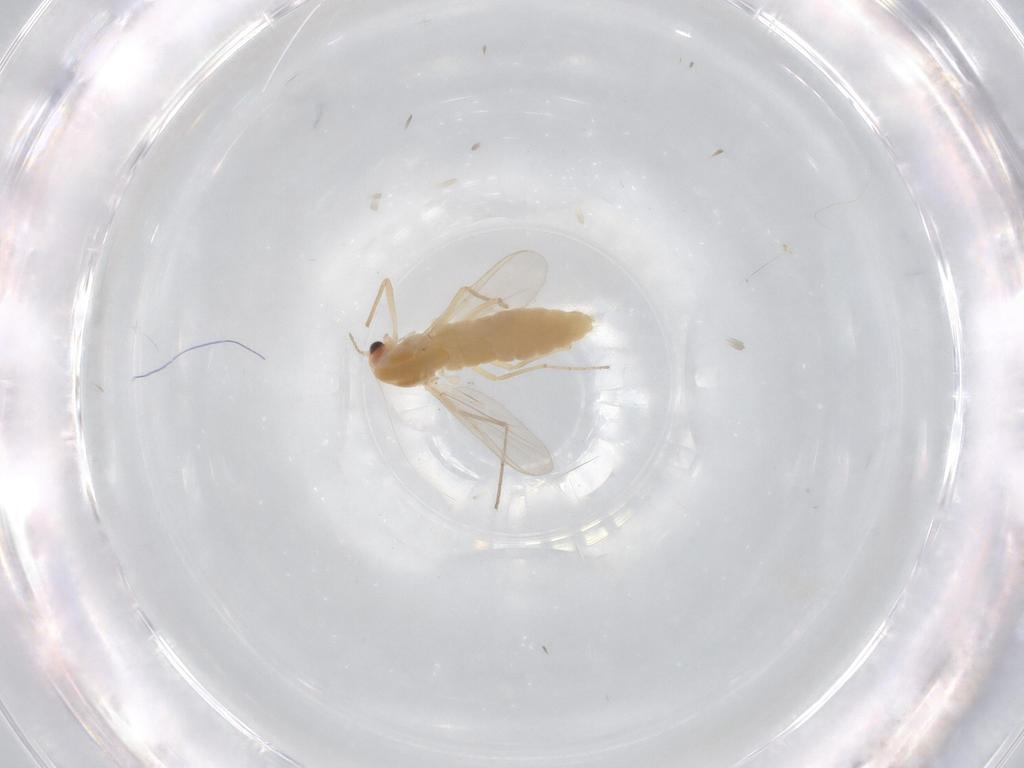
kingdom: Animalia
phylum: Arthropoda
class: Insecta
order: Diptera
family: Chironomidae
